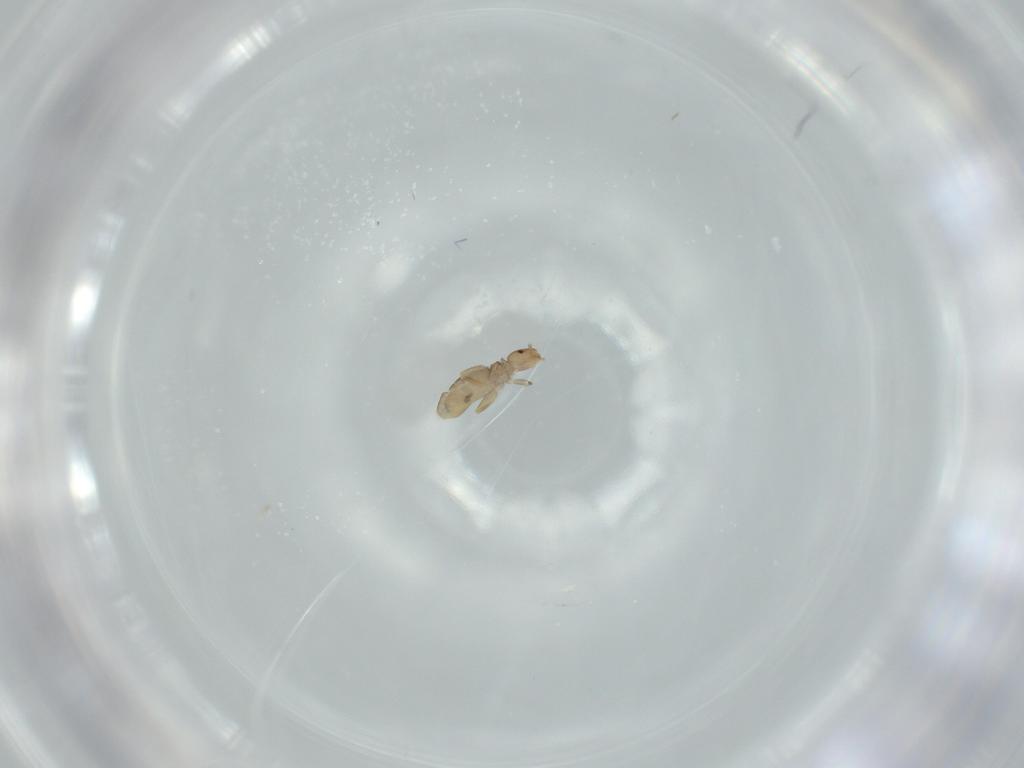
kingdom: Animalia
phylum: Arthropoda
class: Insecta
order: Psocodea
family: Liposcelididae
